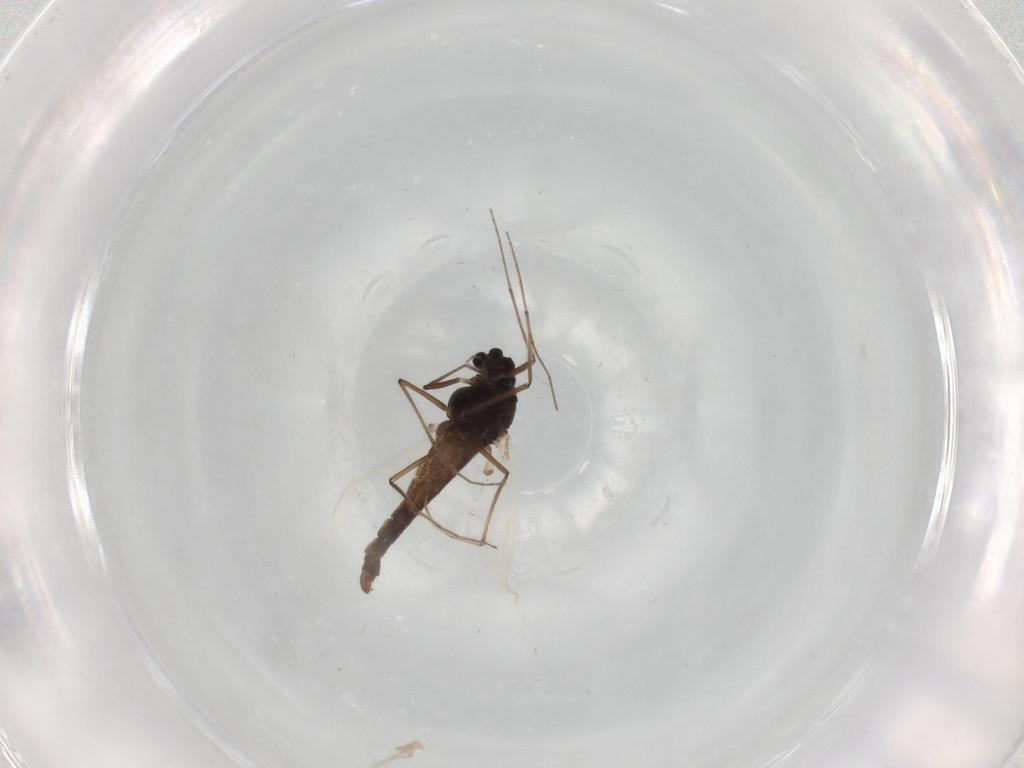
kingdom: Animalia
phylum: Arthropoda
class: Insecta
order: Diptera
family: Chironomidae
